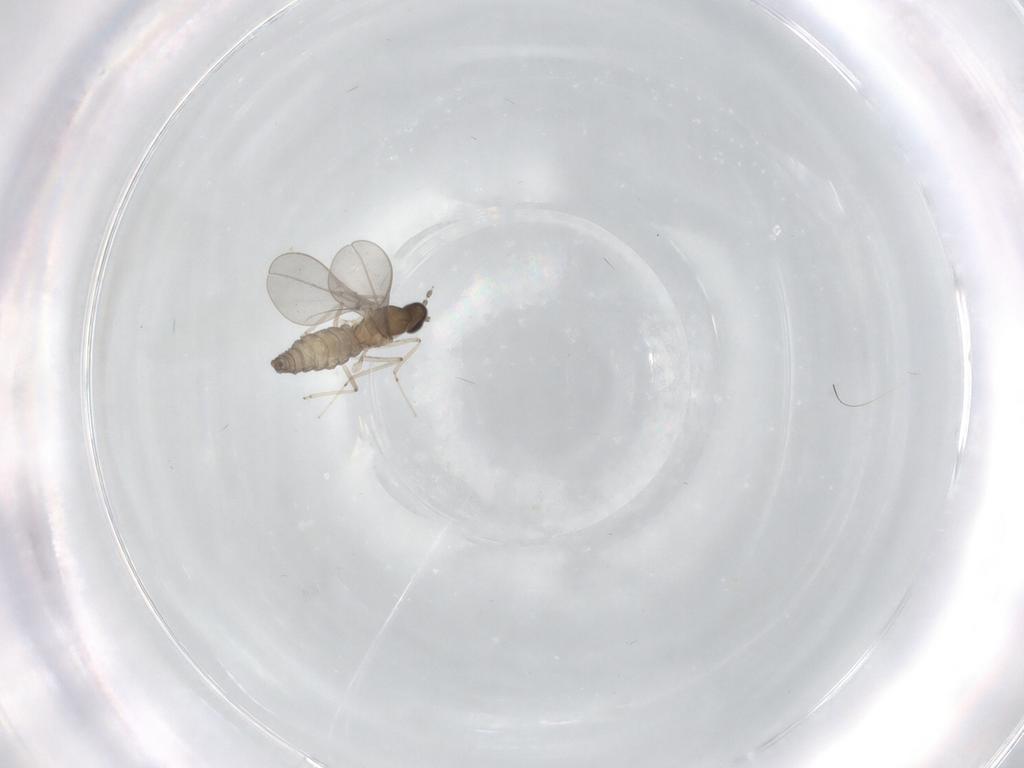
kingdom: Animalia
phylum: Arthropoda
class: Insecta
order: Diptera
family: Cecidomyiidae
